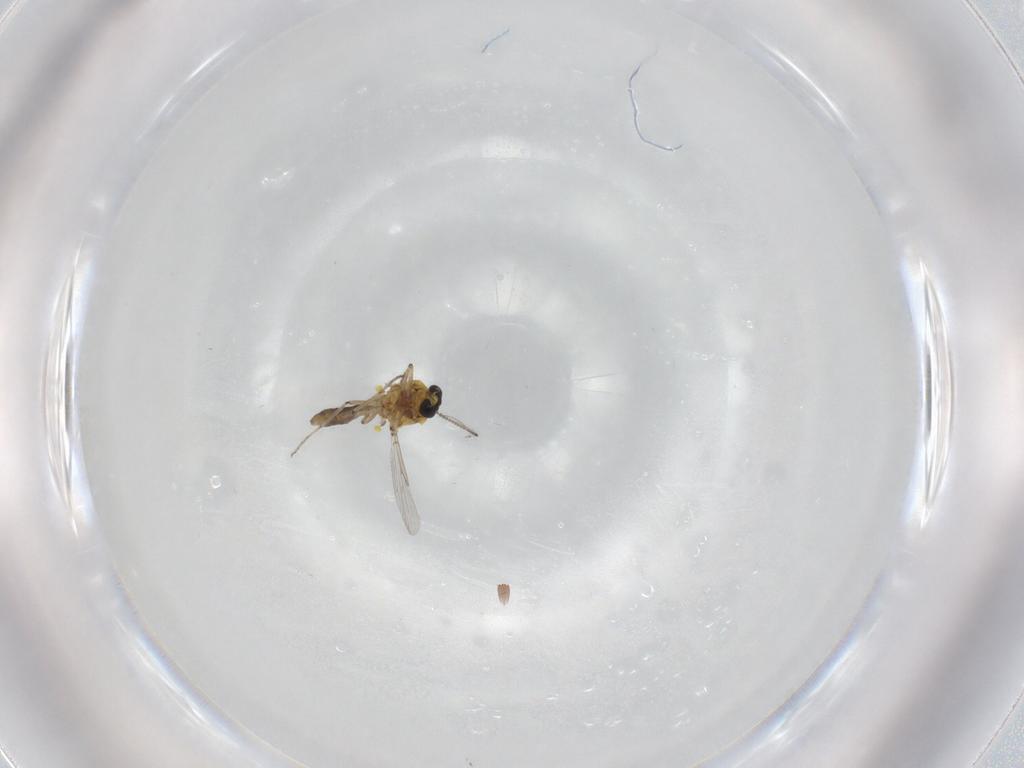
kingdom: Animalia
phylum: Arthropoda
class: Insecta
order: Diptera
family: Ceratopogonidae
